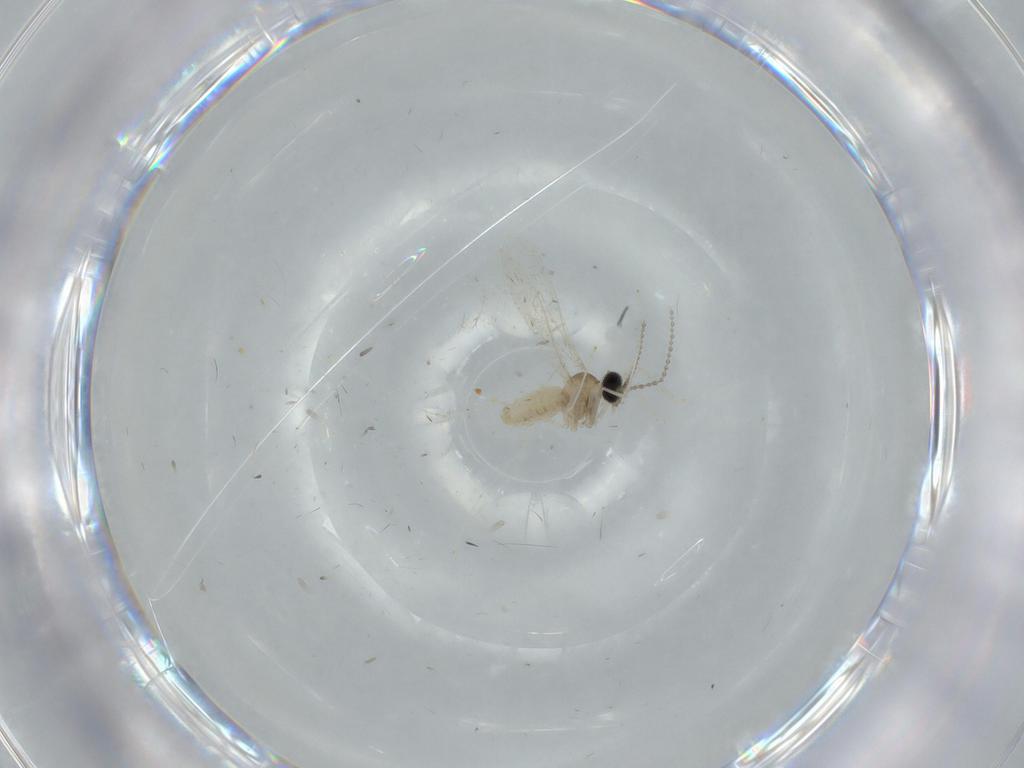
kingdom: Animalia
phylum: Arthropoda
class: Insecta
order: Diptera
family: Cecidomyiidae
